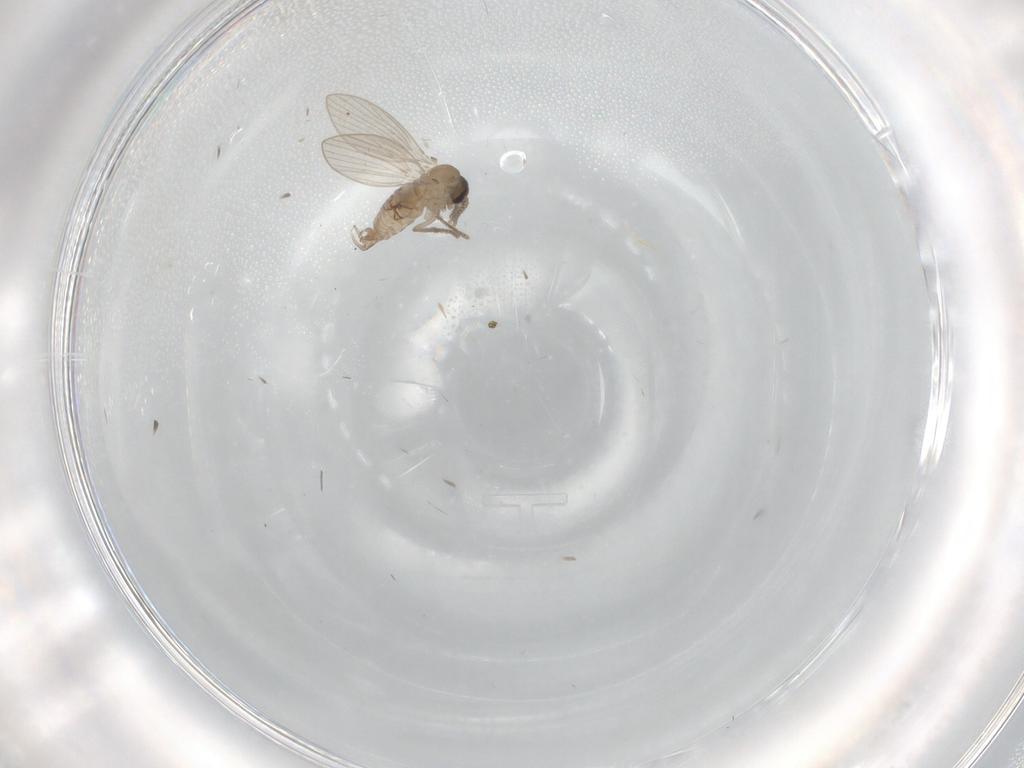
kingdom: Animalia
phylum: Arthropoda
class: Insecta
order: Diptera
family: Psychodidae
